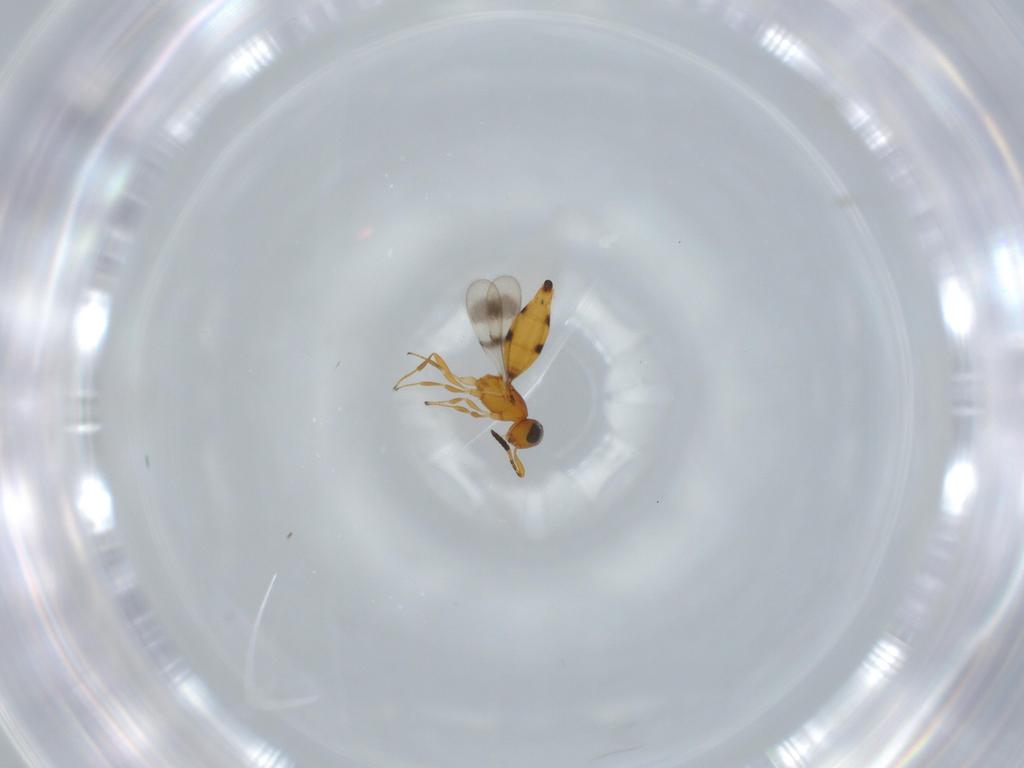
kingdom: Animalia
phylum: Arthropoda
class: Insecta
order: Hymenoptera
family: Scelionidae
